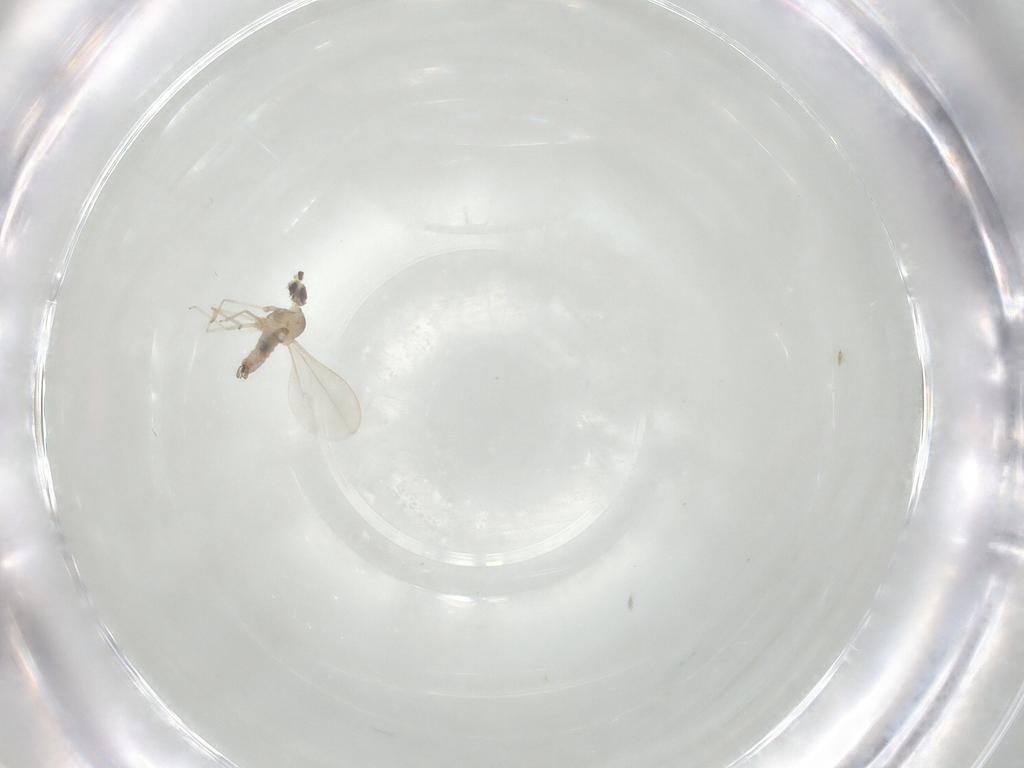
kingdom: Animalia
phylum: Arthropoda
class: Insecta
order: Diptera
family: Cecidomyiidae
